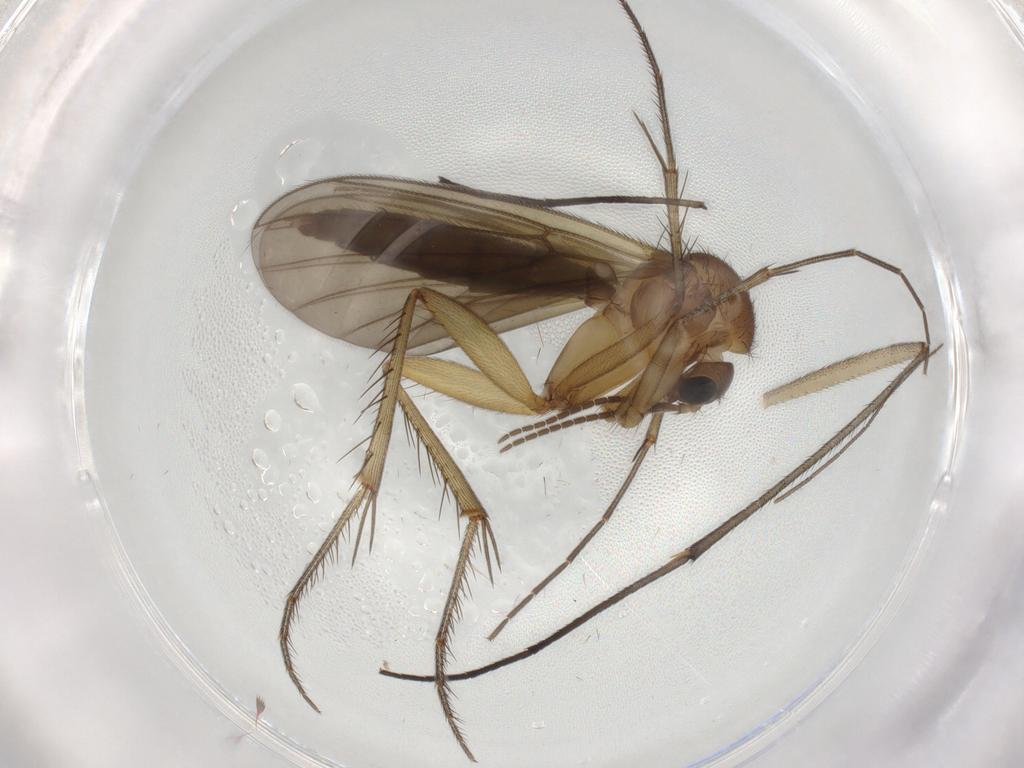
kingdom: Animalia
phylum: Arthropoda
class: Insecta
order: Diptera
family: Mycetophilidae
